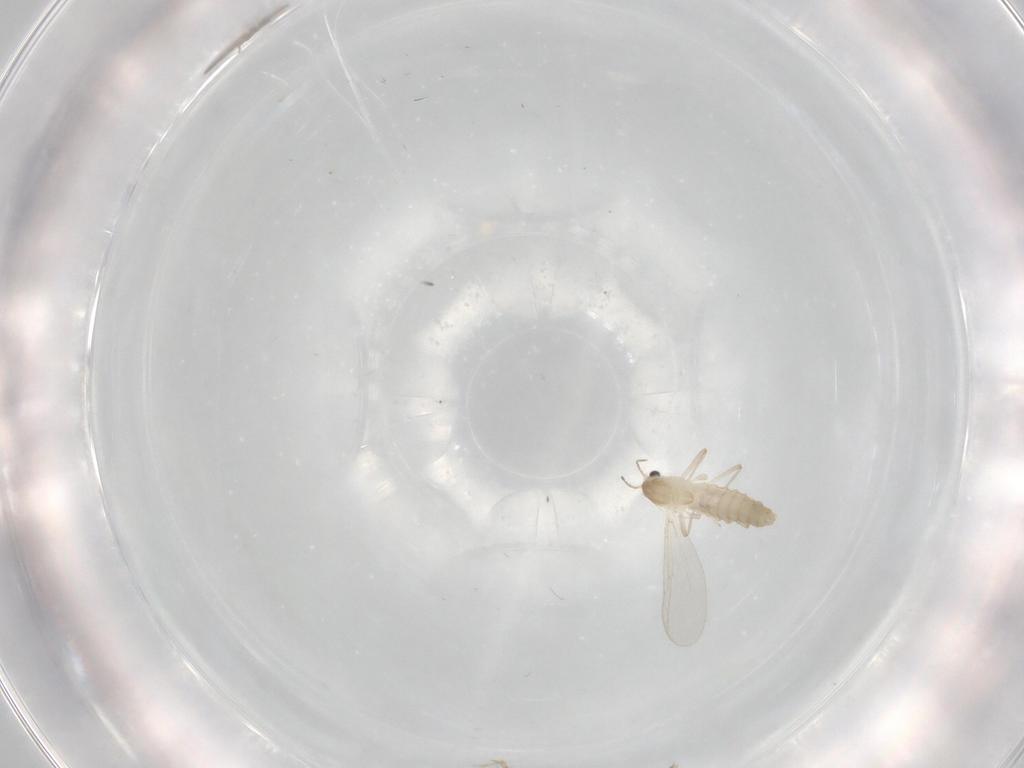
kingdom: Animalia
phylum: Arthropoda
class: Insecta
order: Diptera
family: Chironomidae
